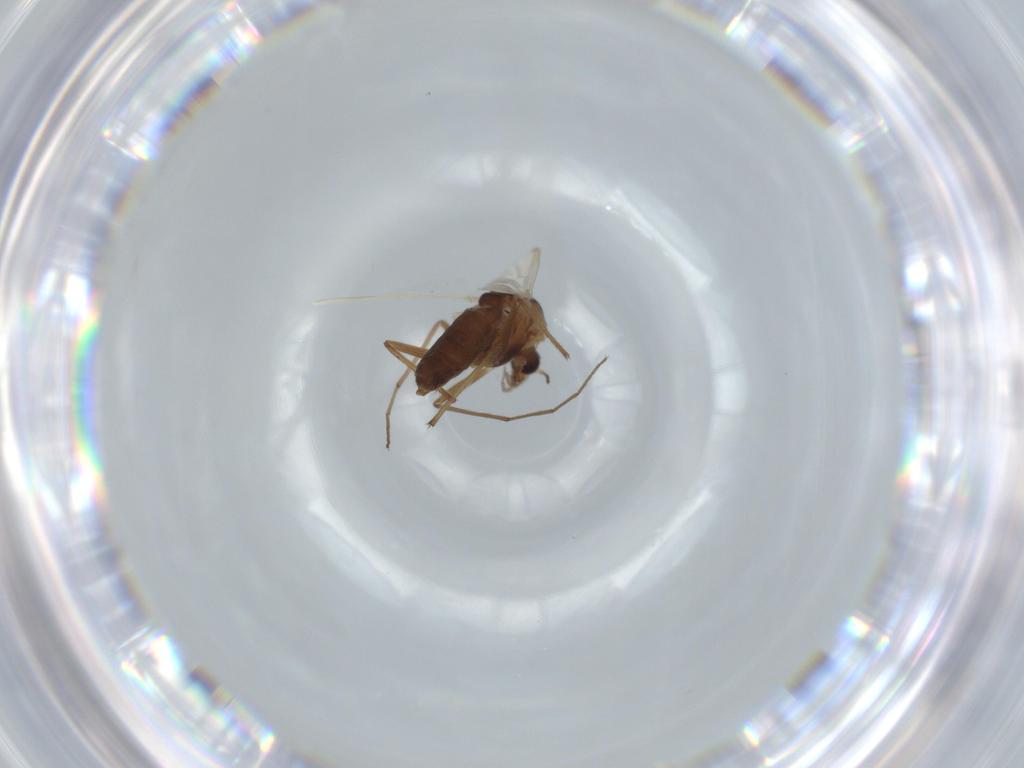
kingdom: Animalia
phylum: Arthropoda
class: Insecta
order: Diptera
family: Chironomidae
